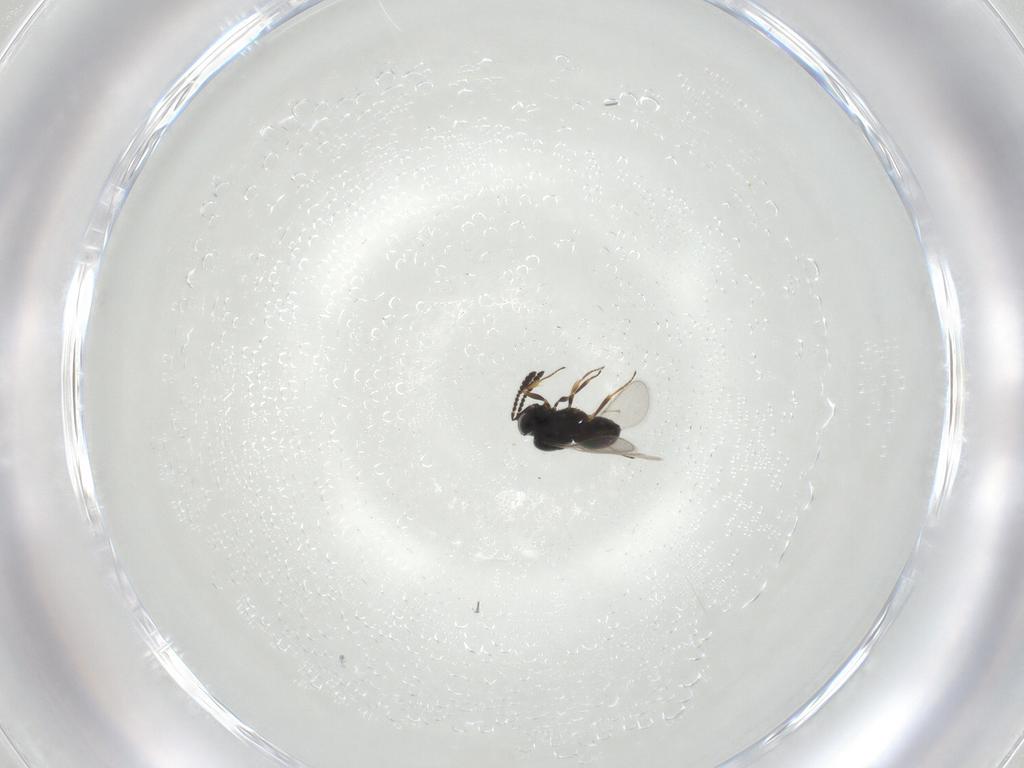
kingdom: Animalia
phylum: Arthropoda
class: Insecta
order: Hymenoptera
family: Scelionidae
